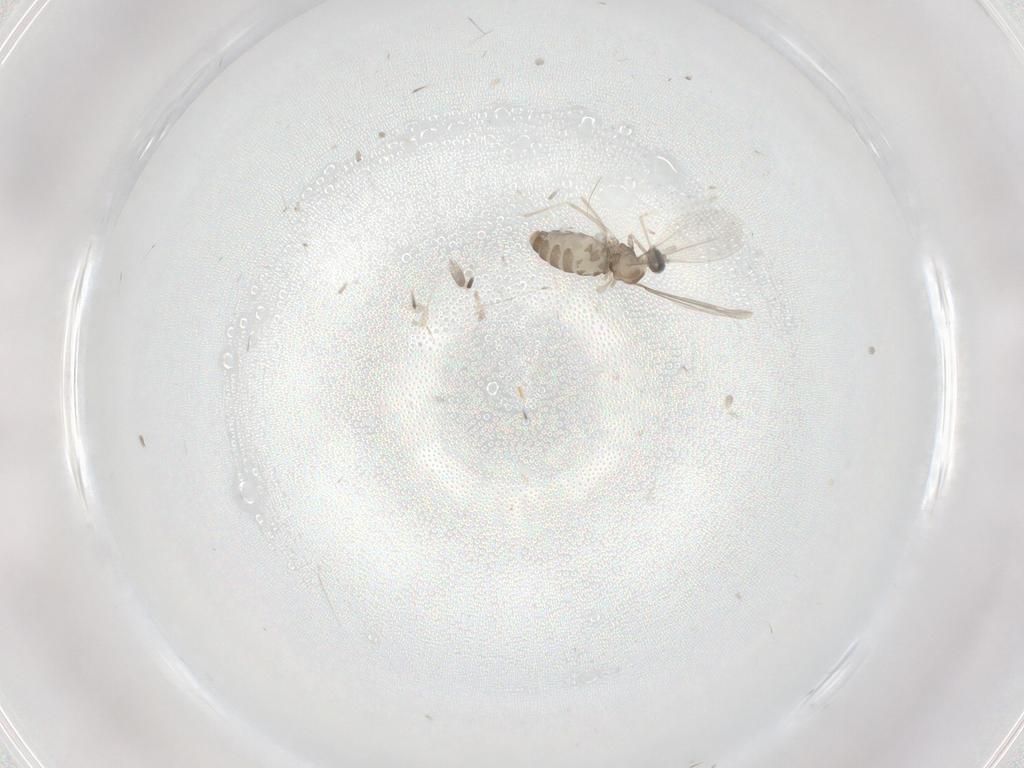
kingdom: Animalia
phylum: Arthropoda
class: Insecta
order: Diptera
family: Cecidomyiidae
